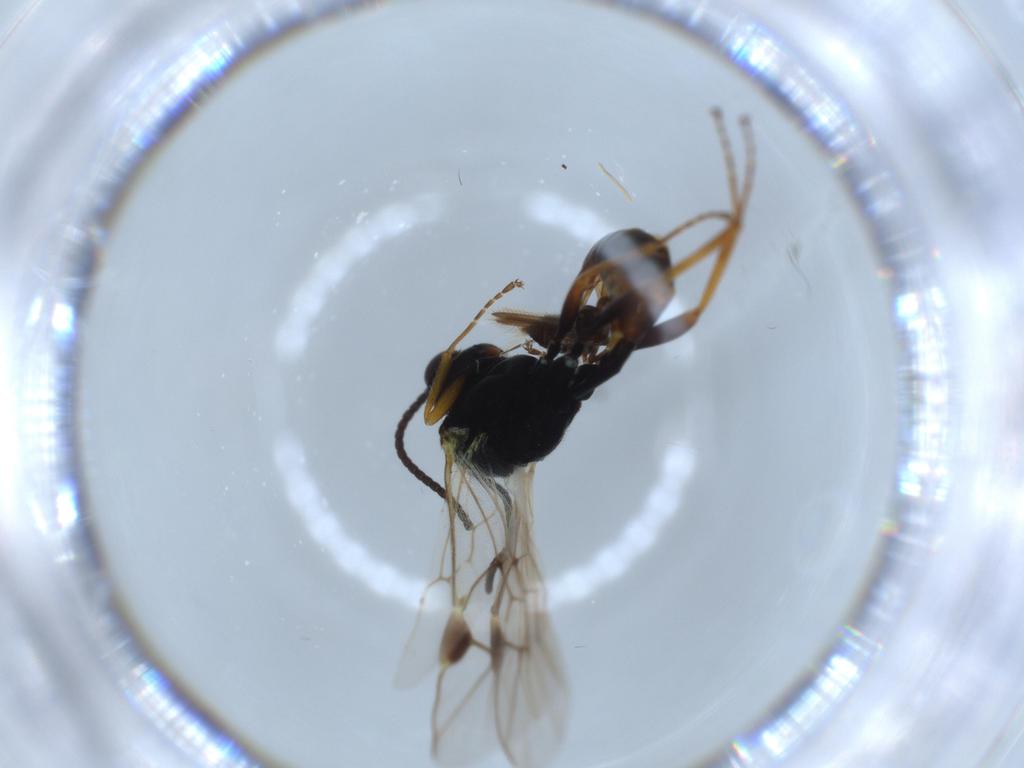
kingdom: Animalia
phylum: Arthropoda
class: Insecta
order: Hymenoptera
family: Ichneumonidae
